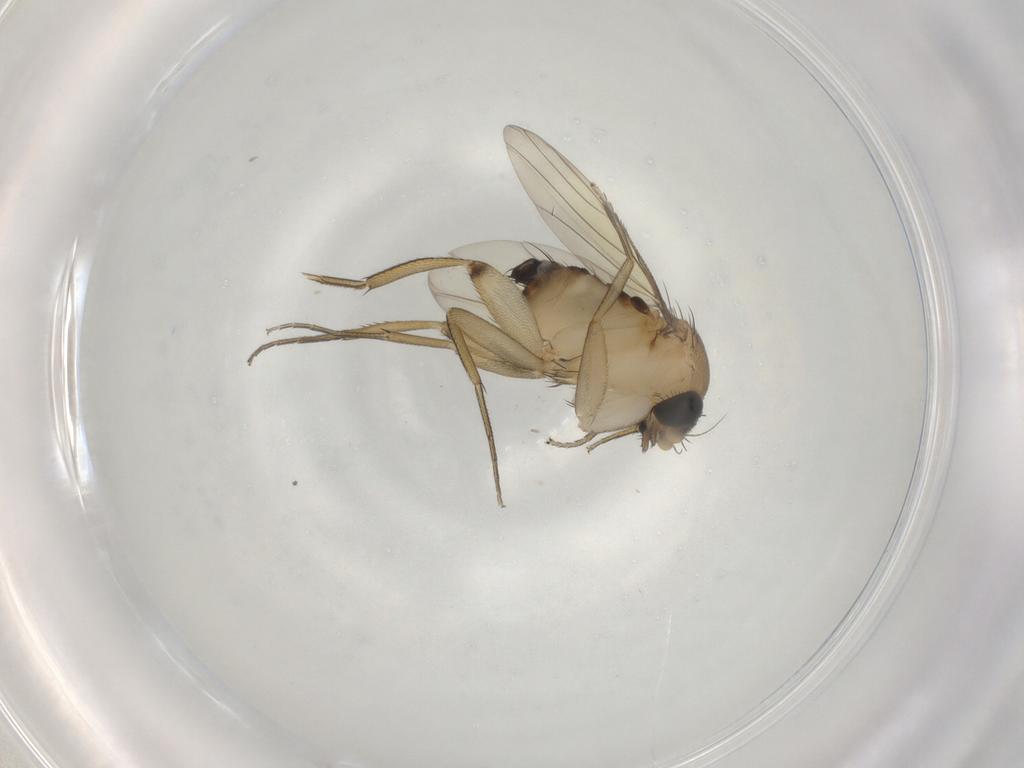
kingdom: Animalia
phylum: Arthropoda
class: Insecta
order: Diptera
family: Phoridae
